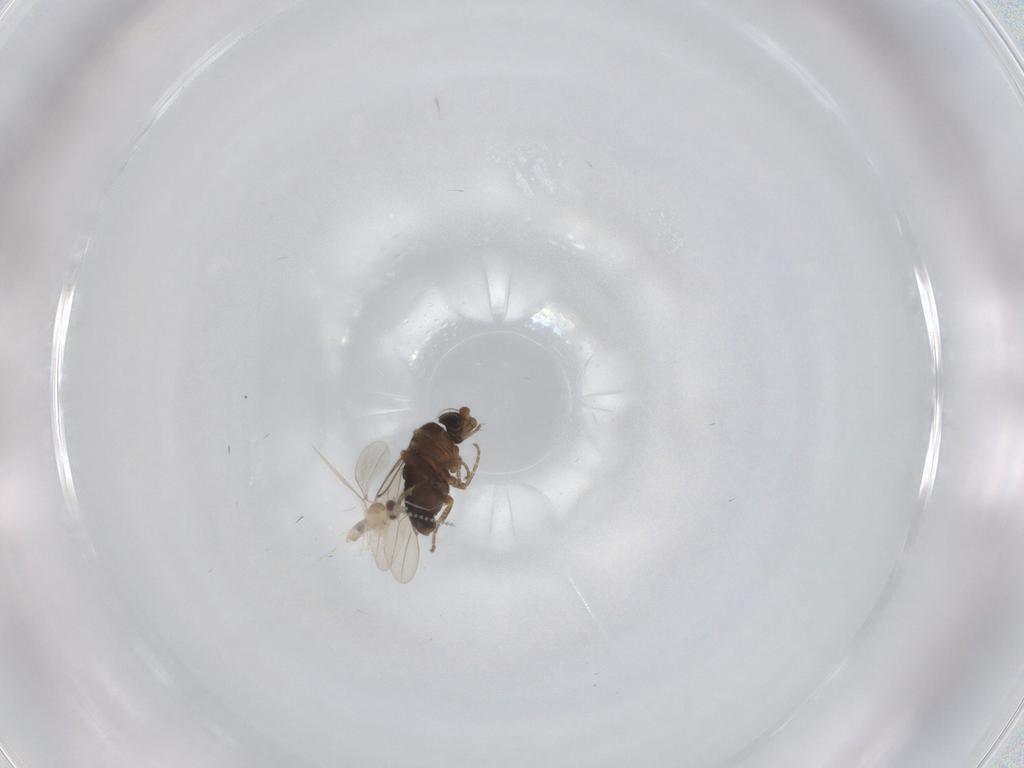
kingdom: Animalia
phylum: Arthropoda
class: Insecta
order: Diptera
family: Cecidomyiidae
